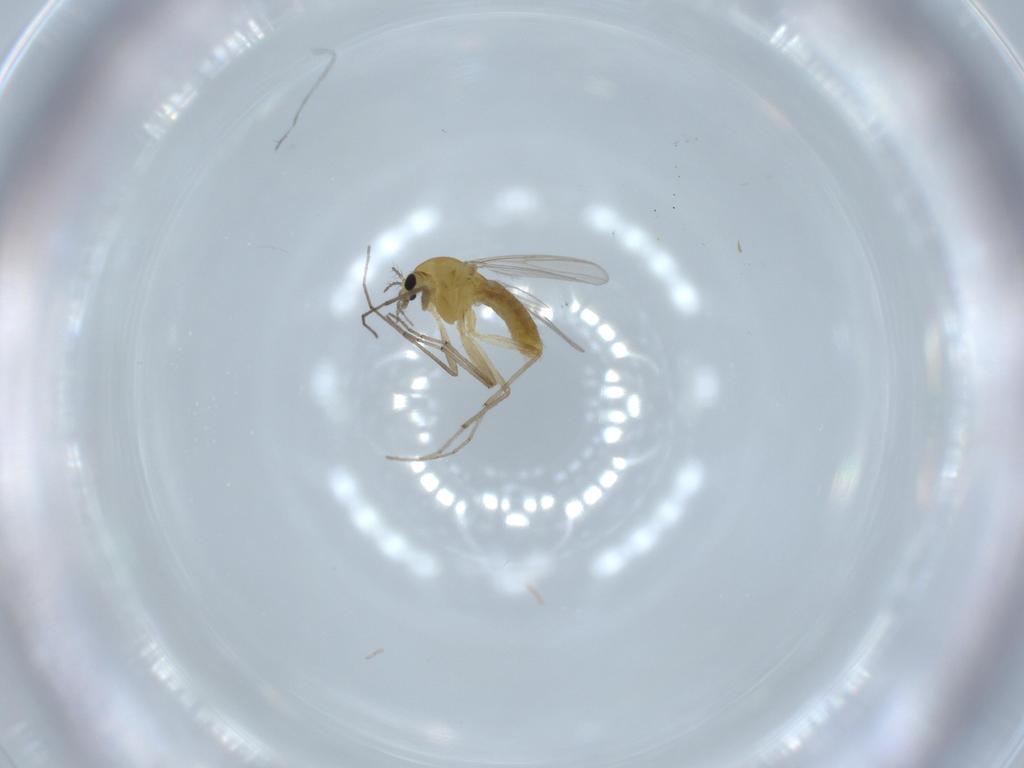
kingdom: Animalia
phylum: Arthropoda
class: Insecta
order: Diptera
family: Chironomidae
